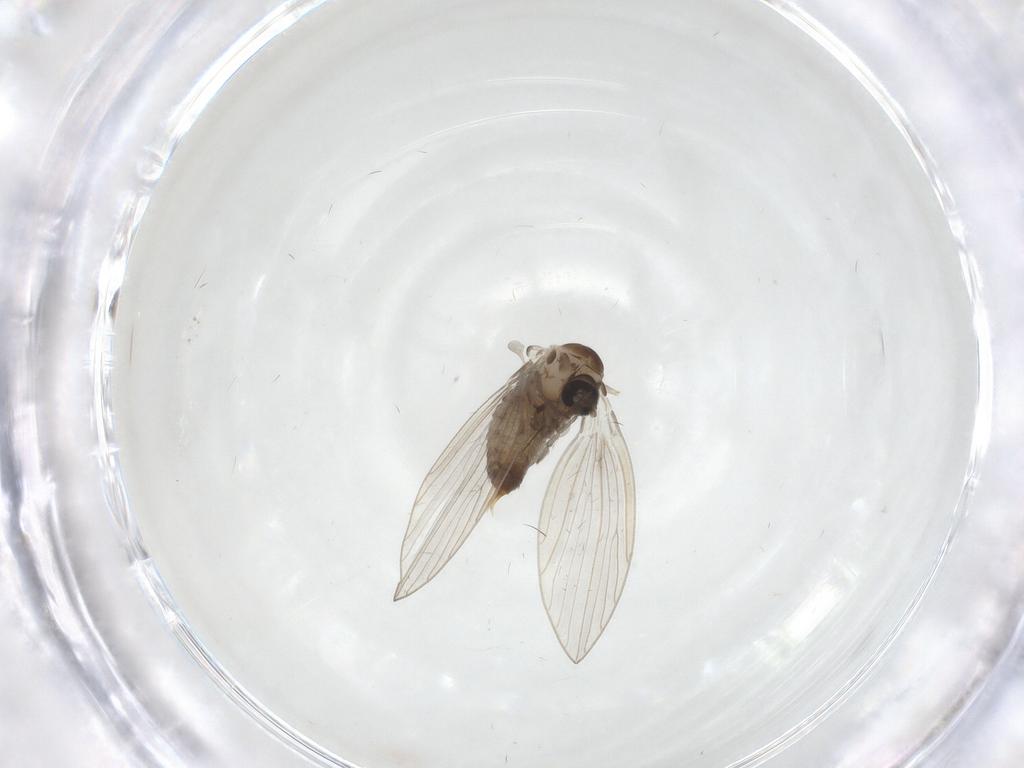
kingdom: Animalia
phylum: Arthropoda
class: Insecta
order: Diptera
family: Psychodidae
